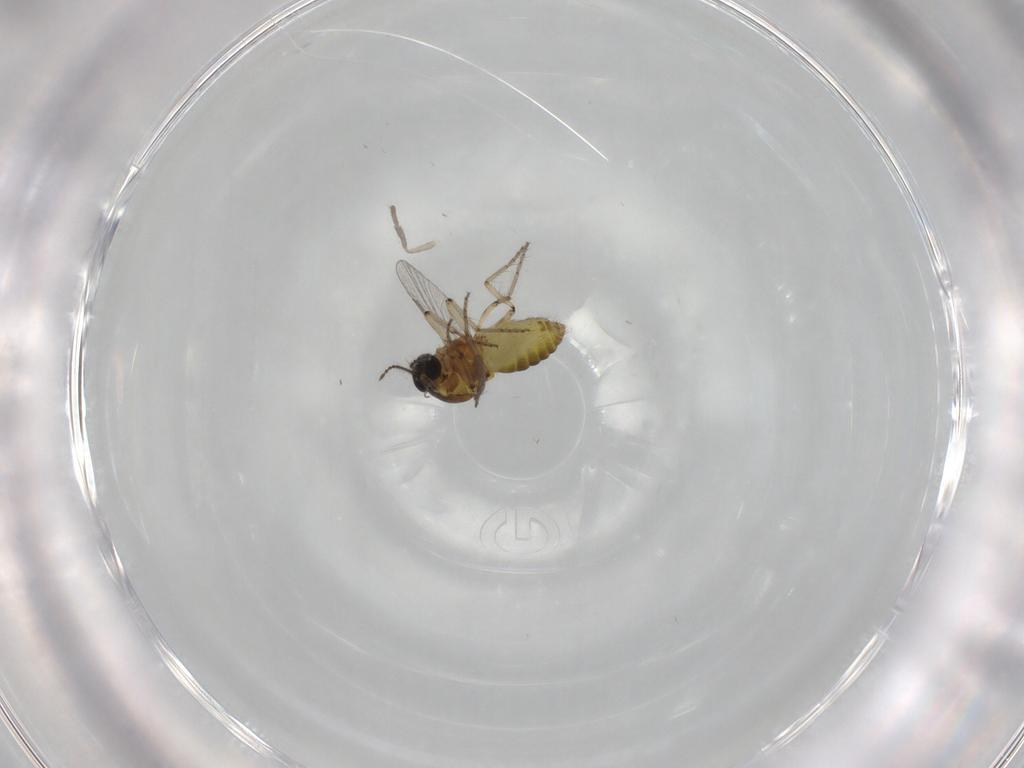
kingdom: Animalia
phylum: Arthropoda
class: Insecta
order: Diptera
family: Ceratopogonidae
